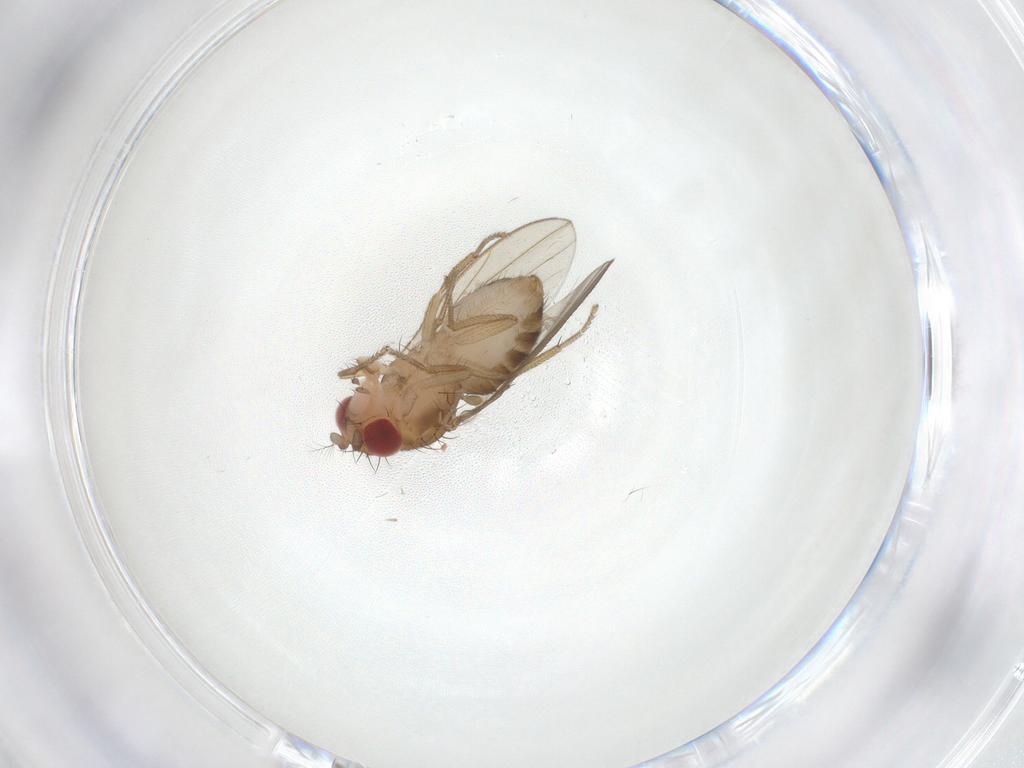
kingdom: Animalia
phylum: Arthropoda
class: Insecta
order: Diptera
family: Drosophilidae
